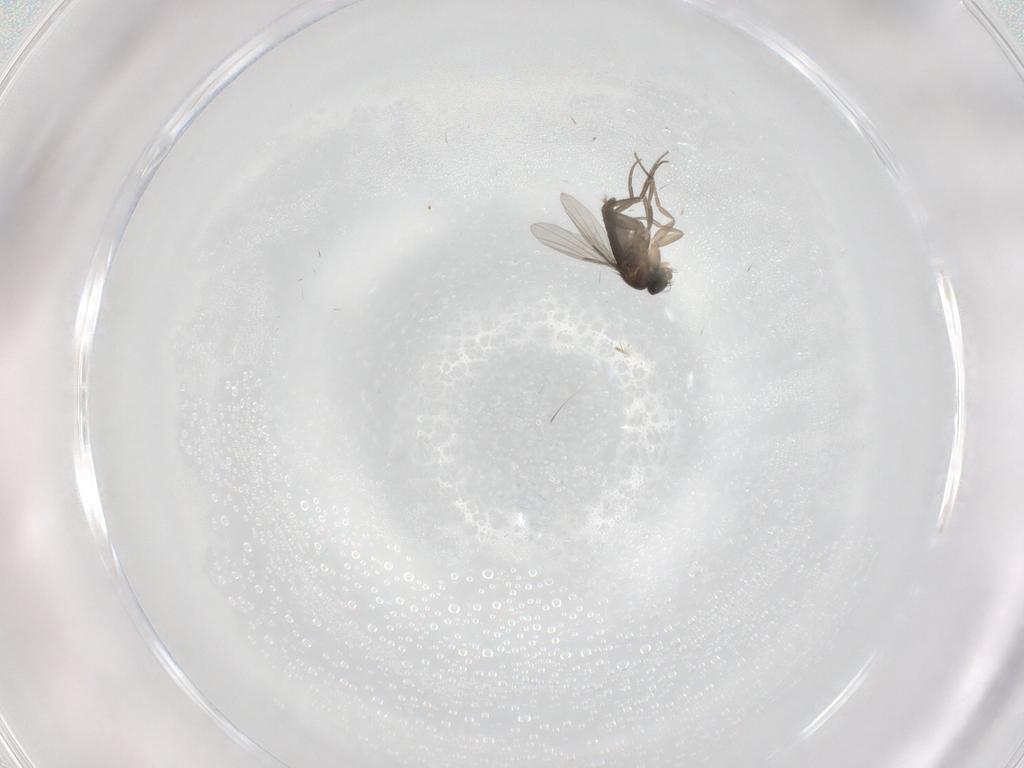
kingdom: Animalia
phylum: Arthropoda
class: Insecta
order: Diptera
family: Phoridae
